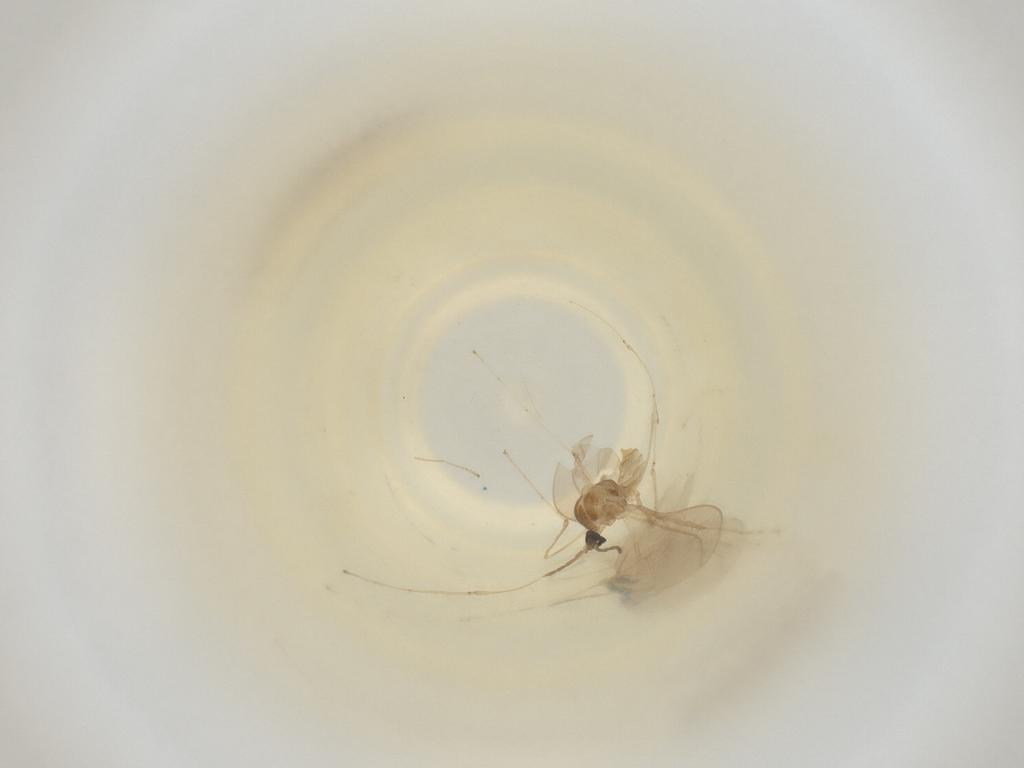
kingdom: Animalia
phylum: Arthropoda
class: Insecta
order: Diptera
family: Cecidomyiidae
